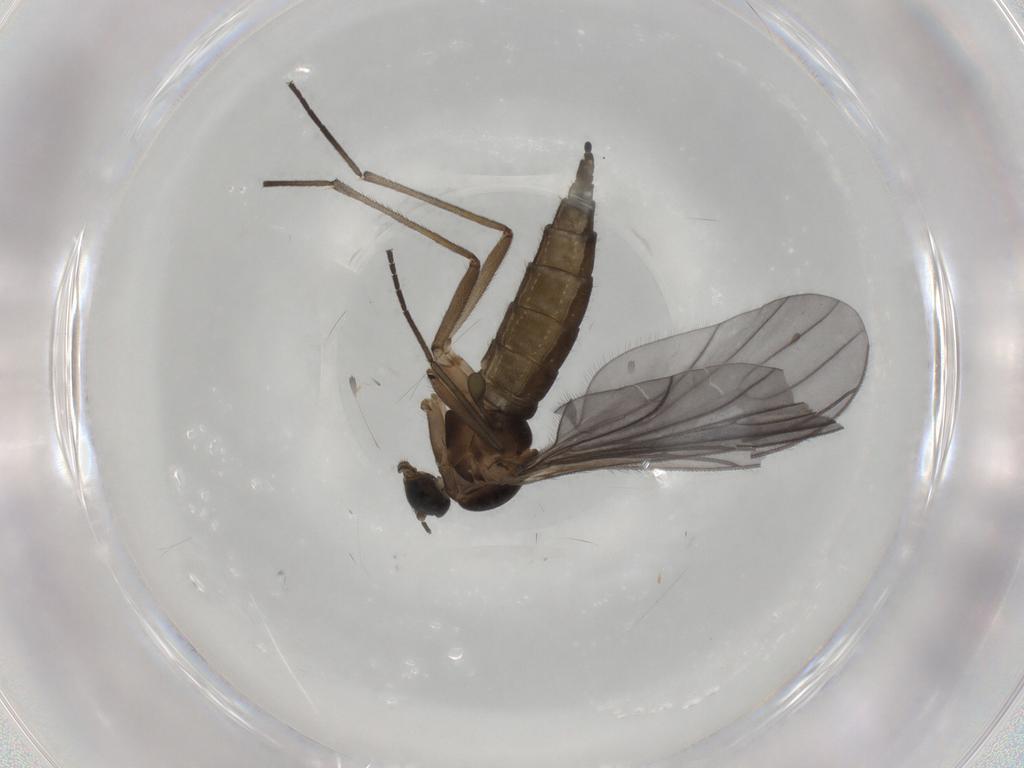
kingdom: Animalia
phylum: Arthropoda
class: Insecta
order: Diptera
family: Sciaridae
